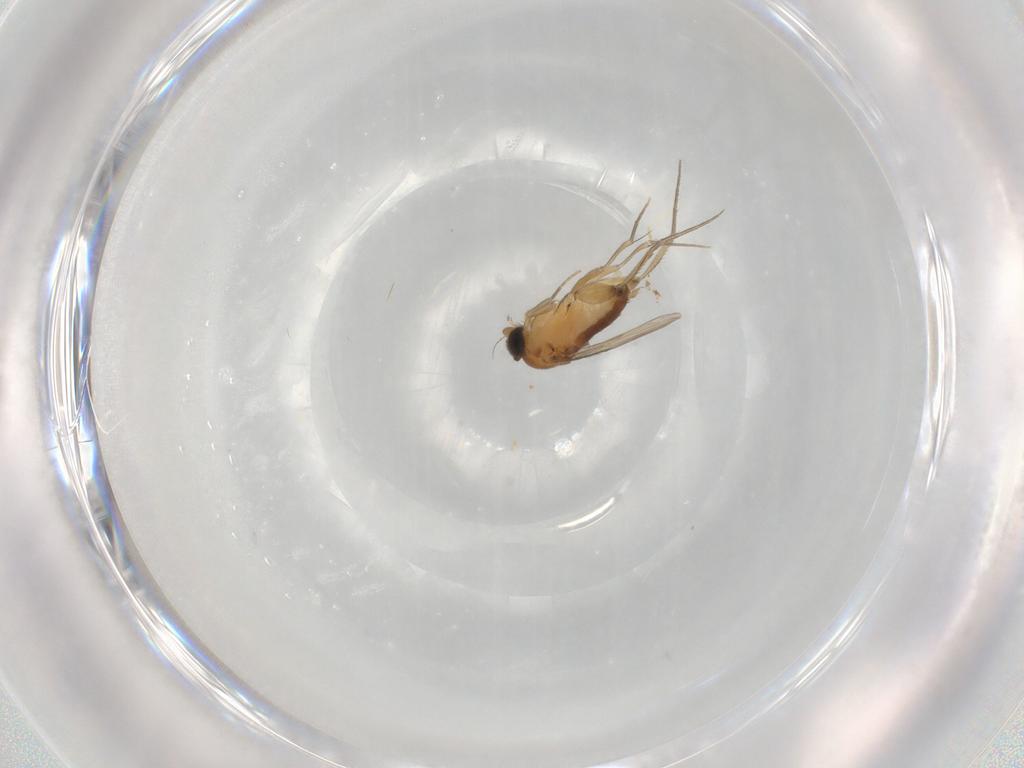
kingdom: Animalia
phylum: Arthropoda
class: Insecta
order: Diptera
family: Phoridae
